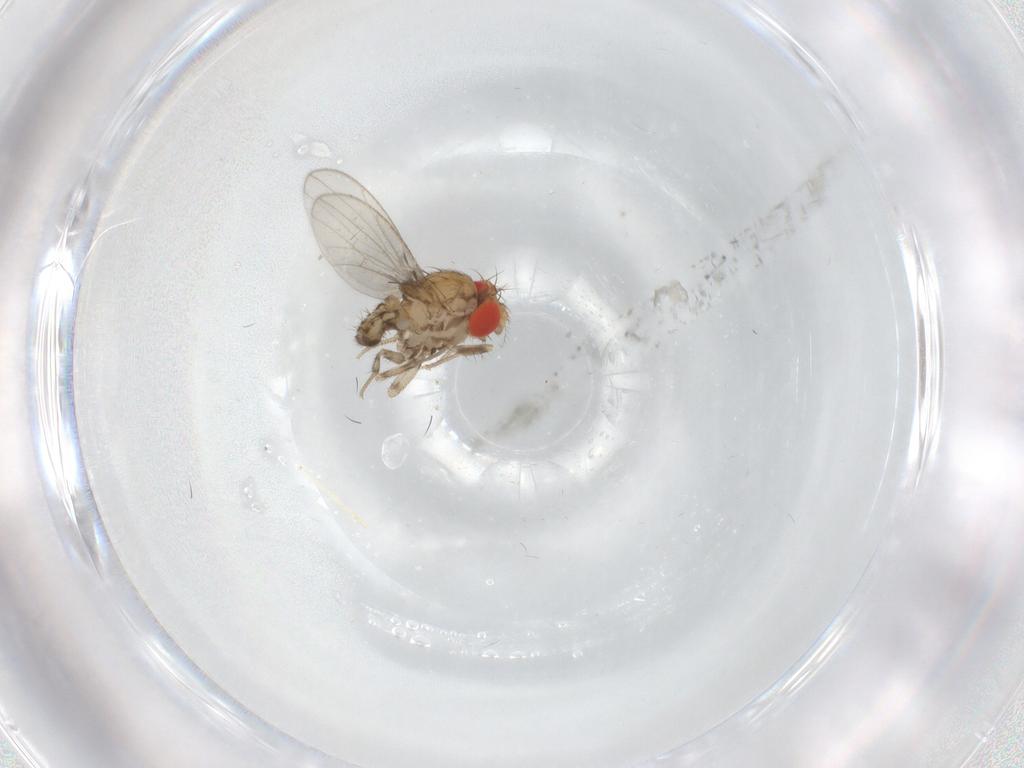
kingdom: Animalia
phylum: Arthropoda
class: Insecta
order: Diptera
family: Drosophilidae
